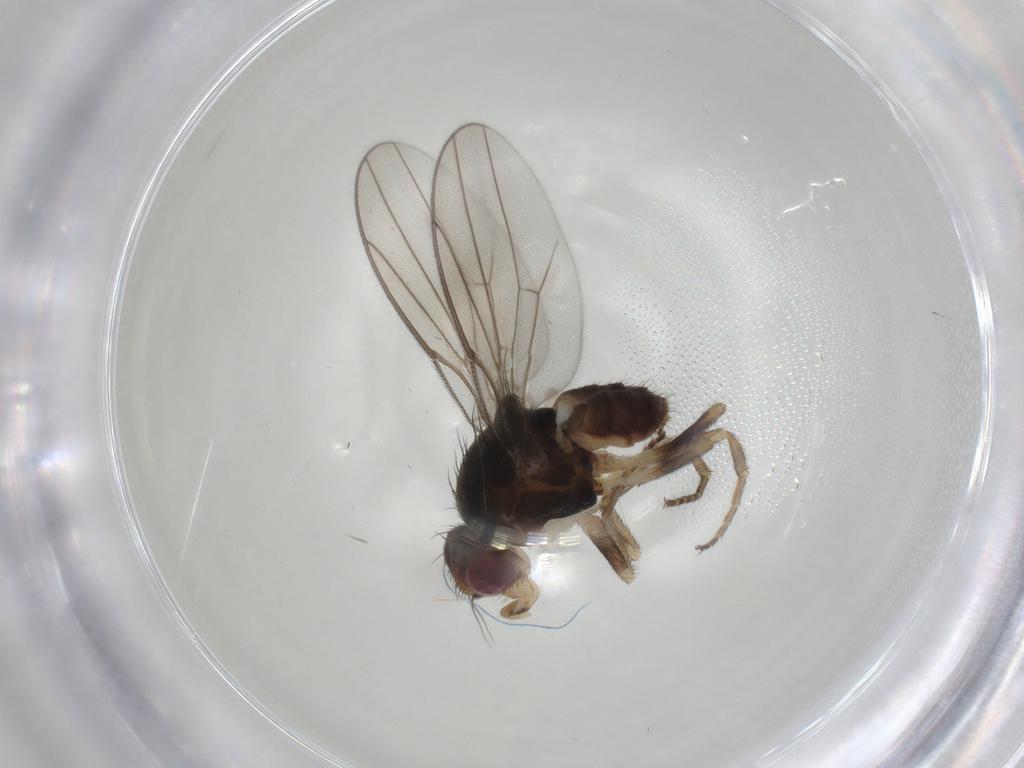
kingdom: Animalia
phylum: Arthropoda
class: Insecta
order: Diptera
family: Chloropidae
